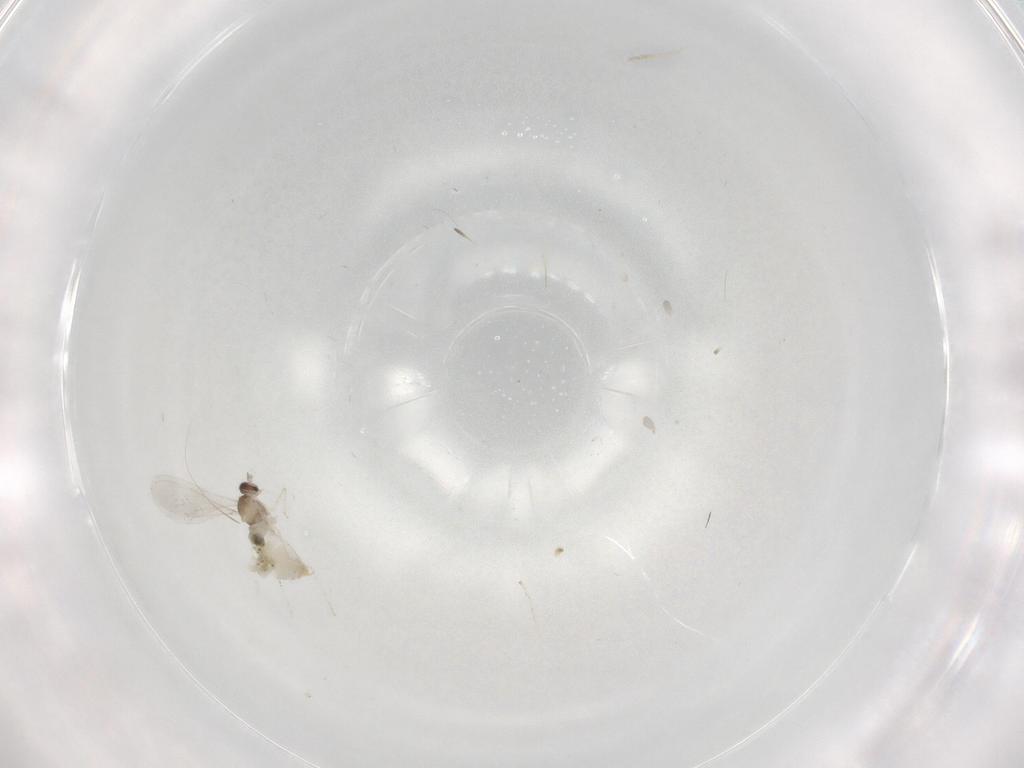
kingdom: Animalia
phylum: Arthropoda
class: Insecta
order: Diptera
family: Cecidomyiidae
